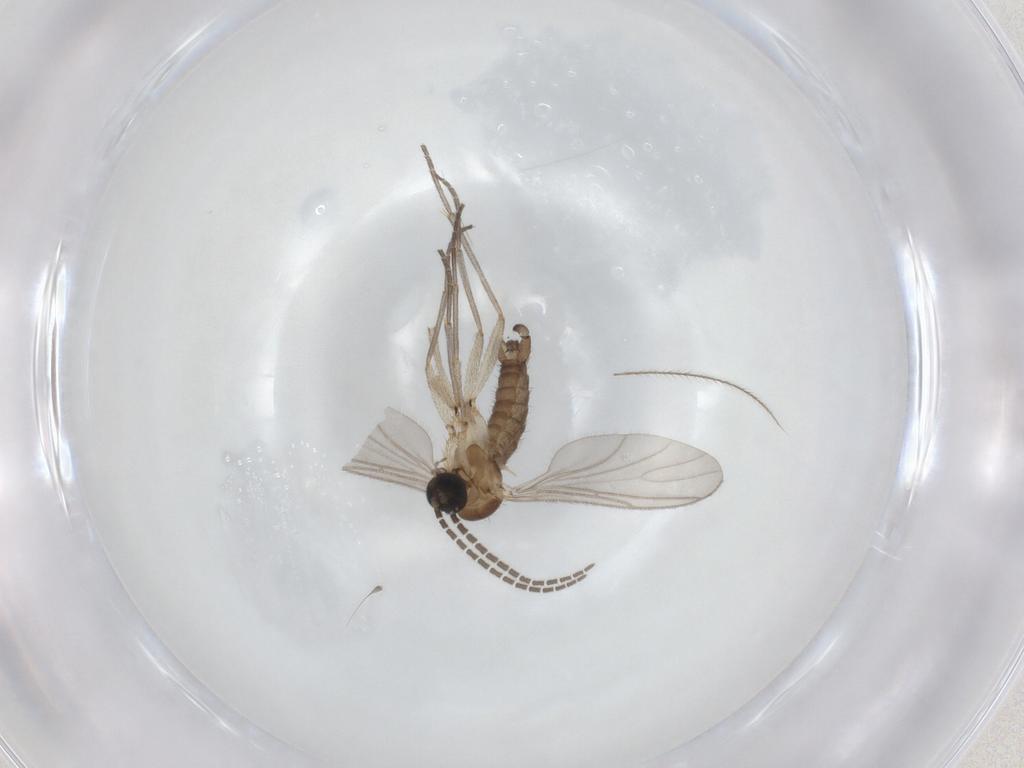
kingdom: Animalia
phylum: Arthropoda
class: Insecta
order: Diptera
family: Sciaridae
